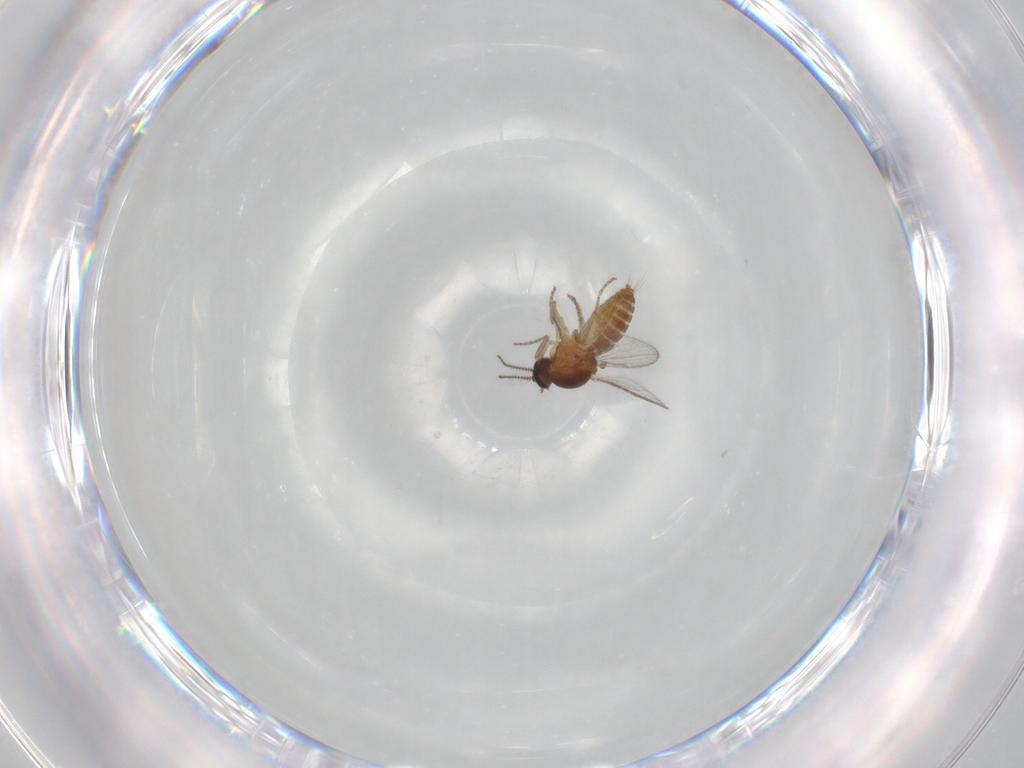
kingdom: Animalia
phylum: Arthropoda
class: Insecta
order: Diptera
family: Ceratopogonidae
